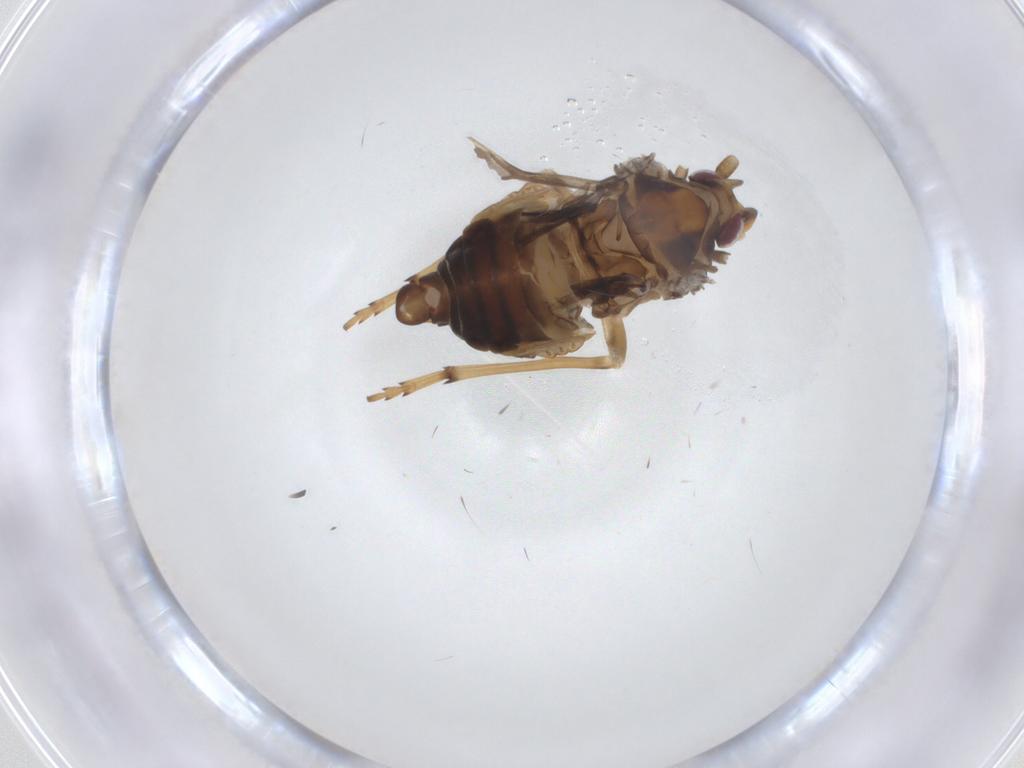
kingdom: Animalia
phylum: Arthropoda
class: Insecta
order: Hemiptera
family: Cixiidae
